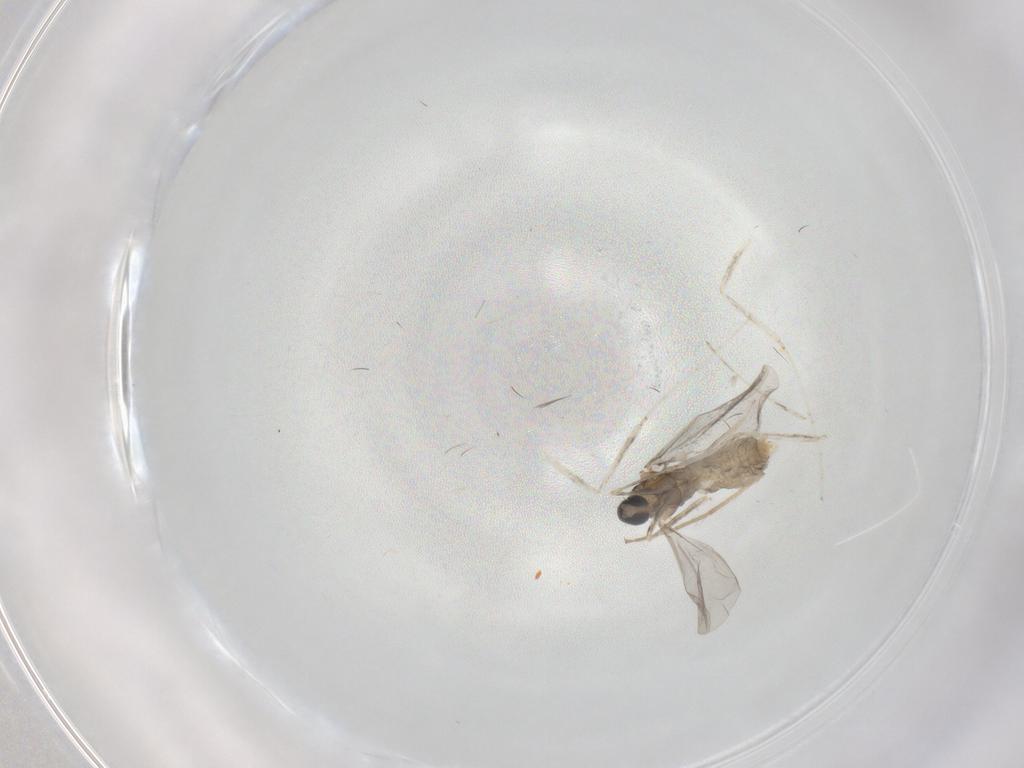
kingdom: Animalia
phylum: Arthropoda
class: Insecta
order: Diptera
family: Cecidomyiidae
